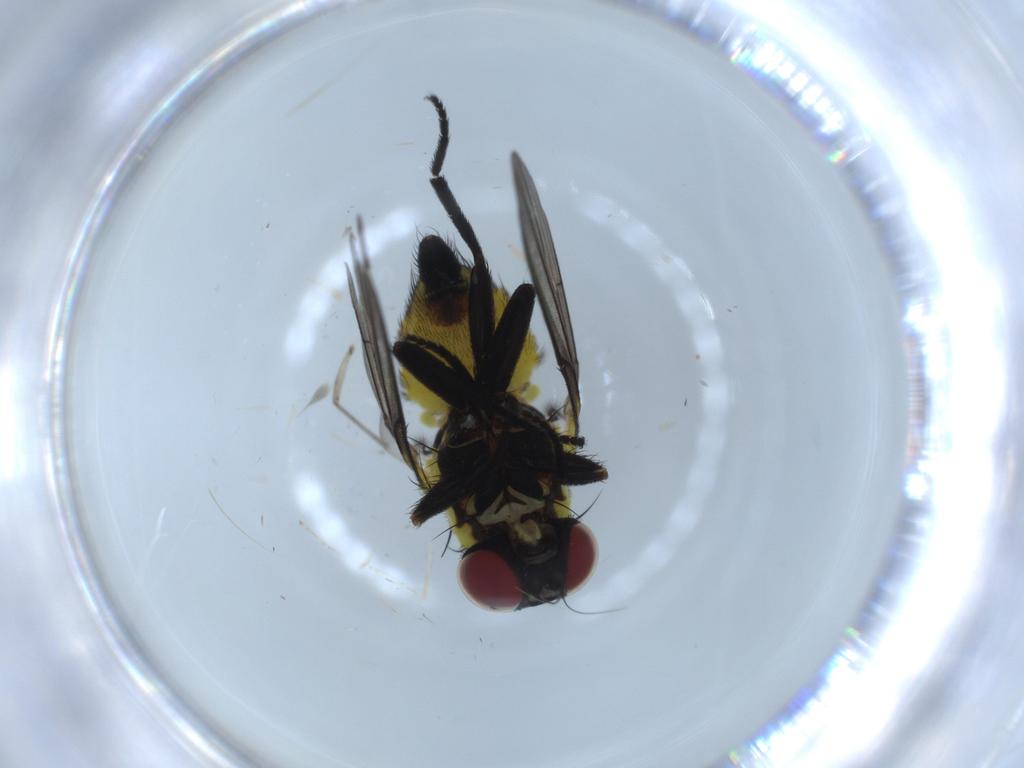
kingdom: Animalia
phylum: Arthropoda
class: Insecta
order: Diptera
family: Agromyzidae
